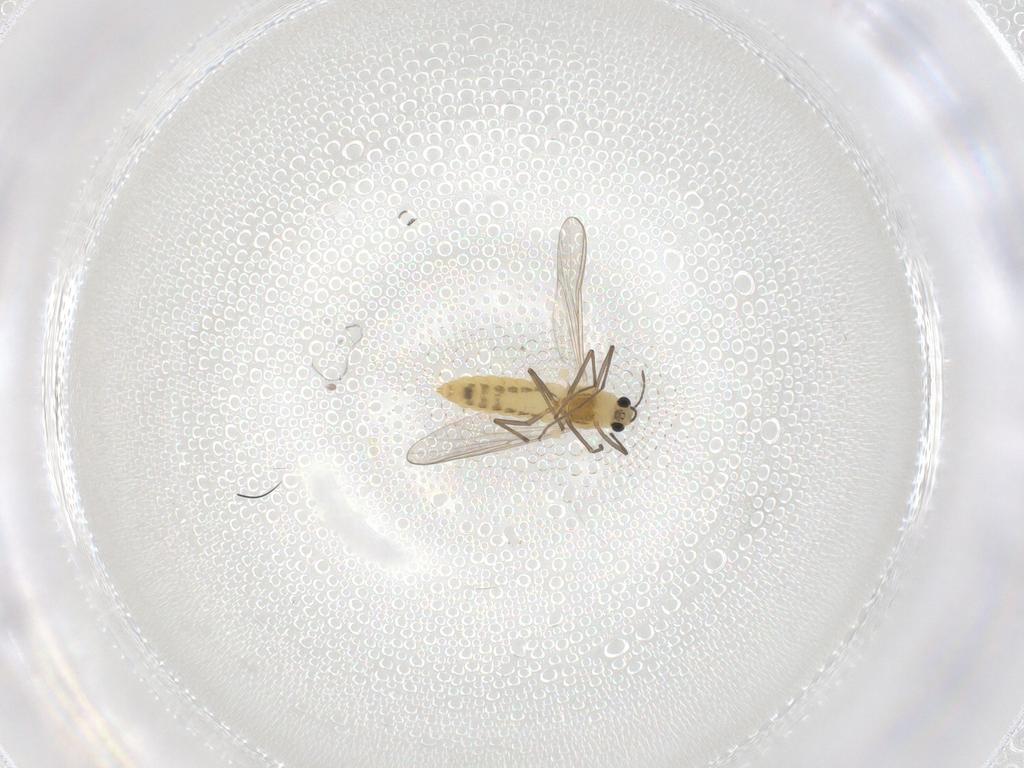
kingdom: Animalia
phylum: Arthropoda
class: Insecta
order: Diptera
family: Chironomidae
